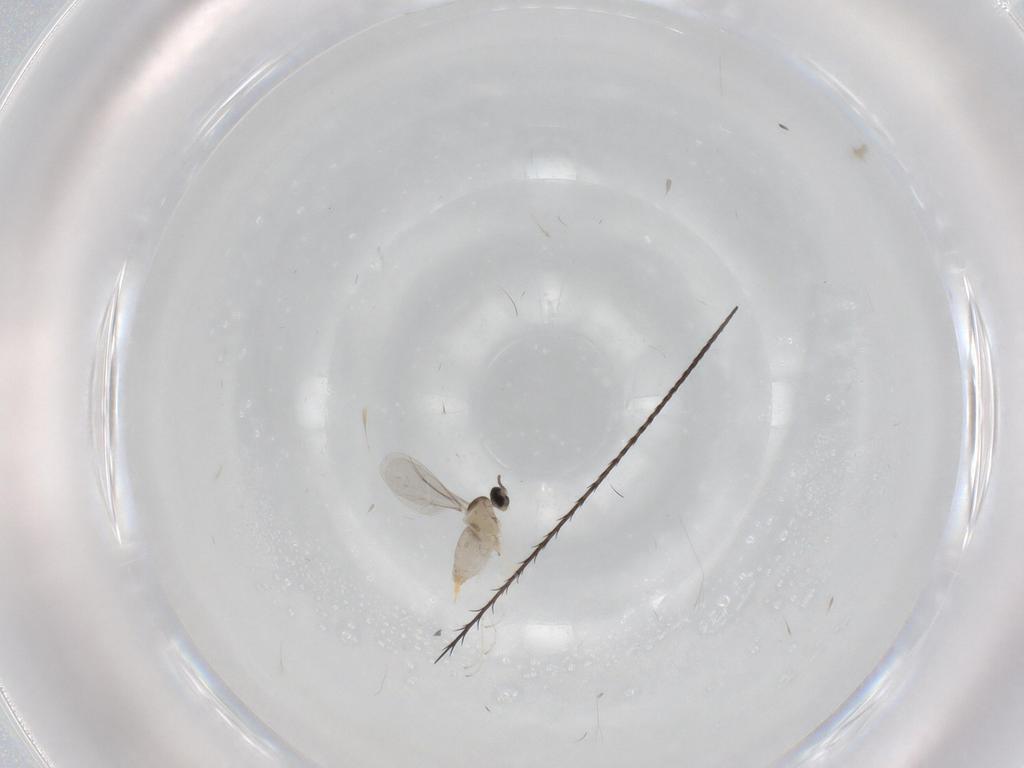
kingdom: Animalia
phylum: Arthropoda
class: Insecta
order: Diptera
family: Cecidomyiidae
